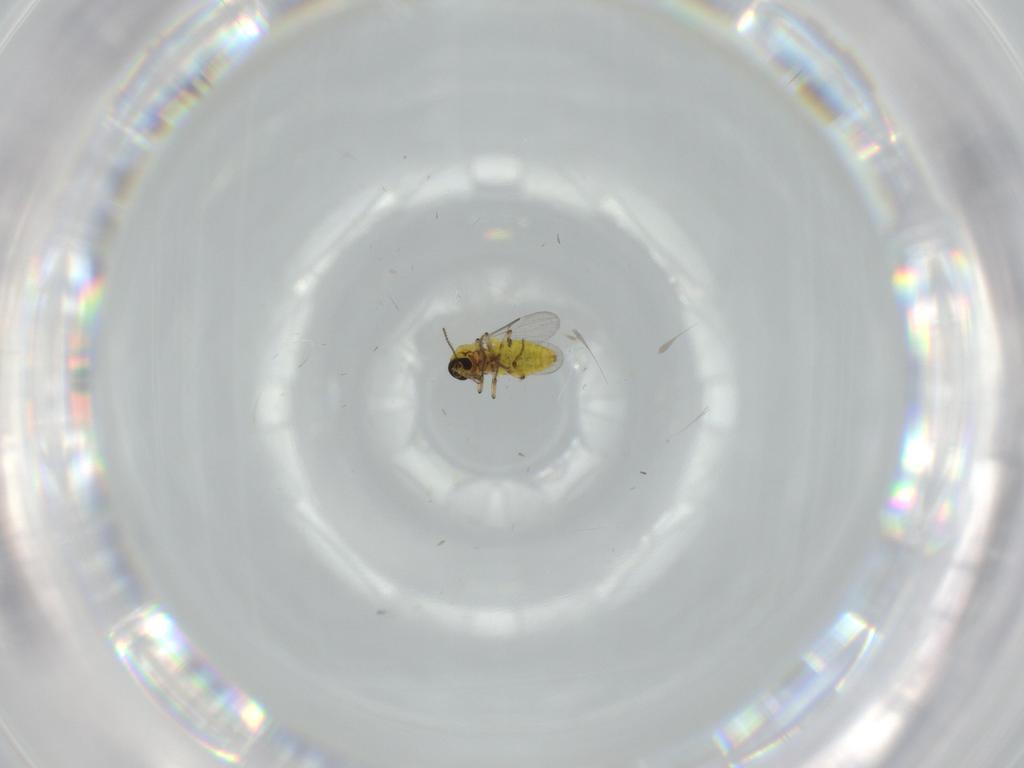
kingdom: Animalia
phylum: Arthropoda
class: Insecta
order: Diptera
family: Ceratopogonidae
